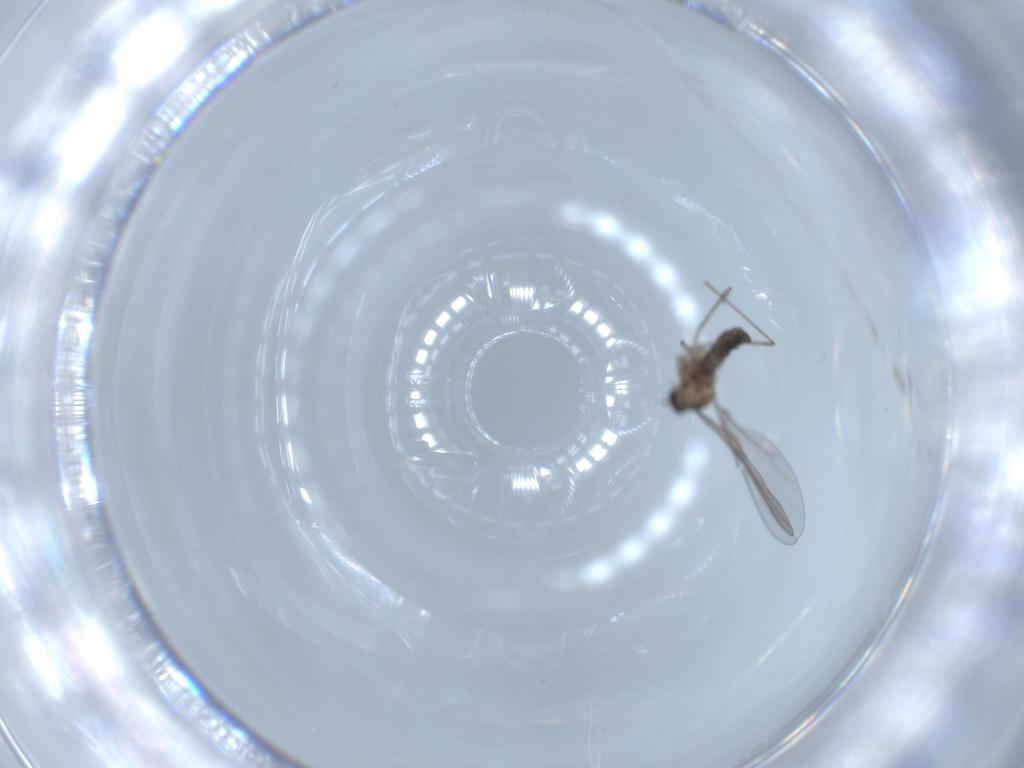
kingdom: Animalia
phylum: Arthropoda
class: Insecta
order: Diptera
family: Cecidomyiidae
